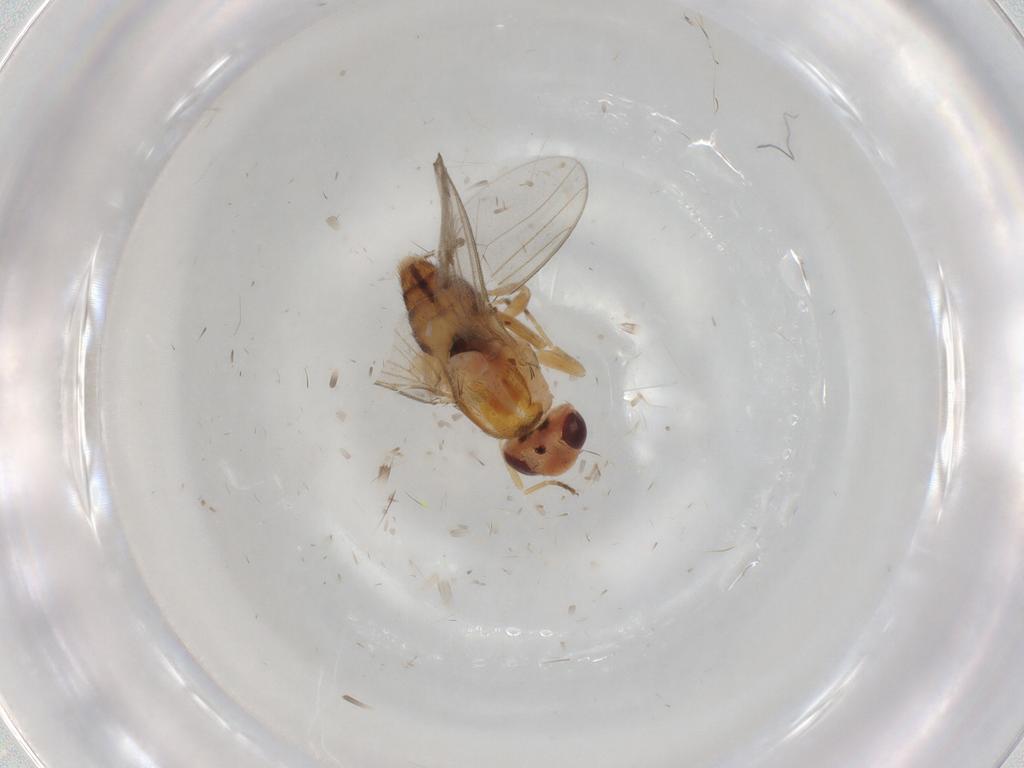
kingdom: Animalia
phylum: Arthropoda
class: Insecta
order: Diptera
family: Chloropidae
